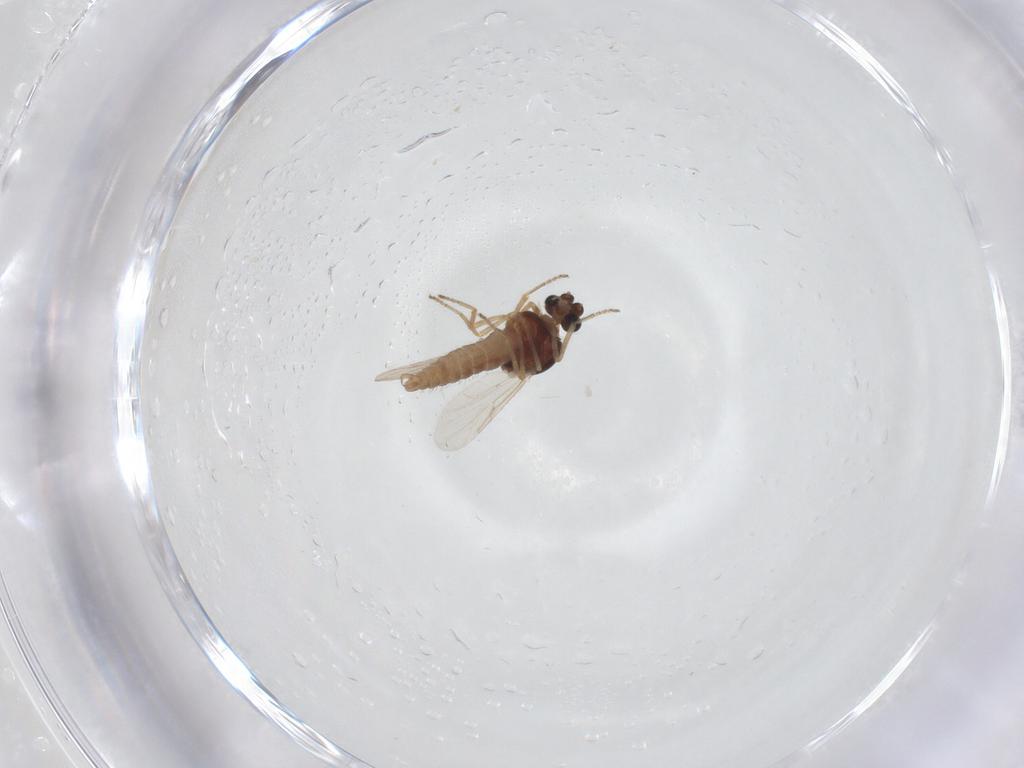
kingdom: Animalia
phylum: Arthropoda
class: Insecta
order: Diptera
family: Ceratopogonidae
